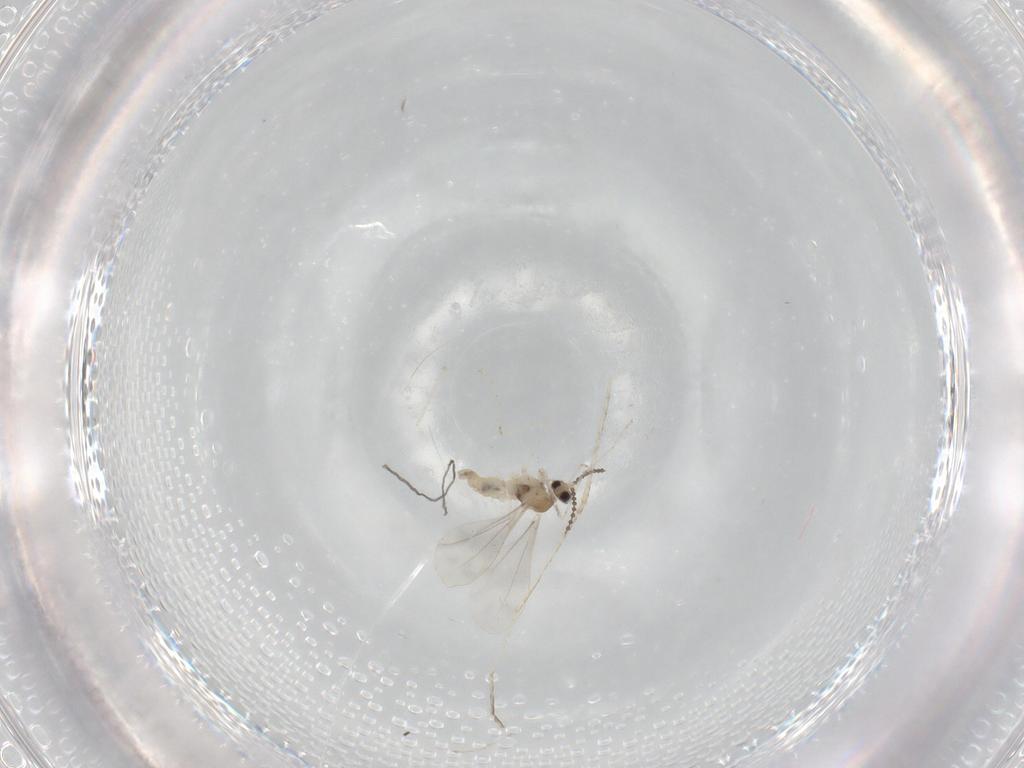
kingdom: Animalia
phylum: Arthropoda
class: Insecta
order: Diptera
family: Cecidomyiidae
